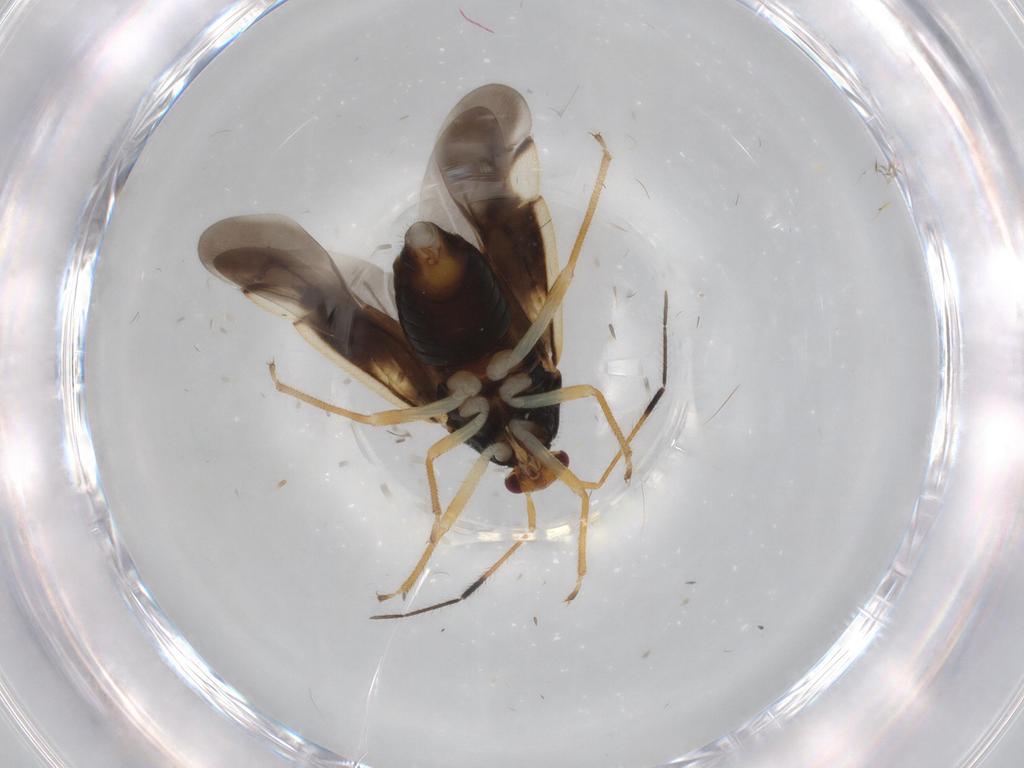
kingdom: Animalia
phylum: Arthropoda
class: Insecta
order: Hemiptera
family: Miridae
